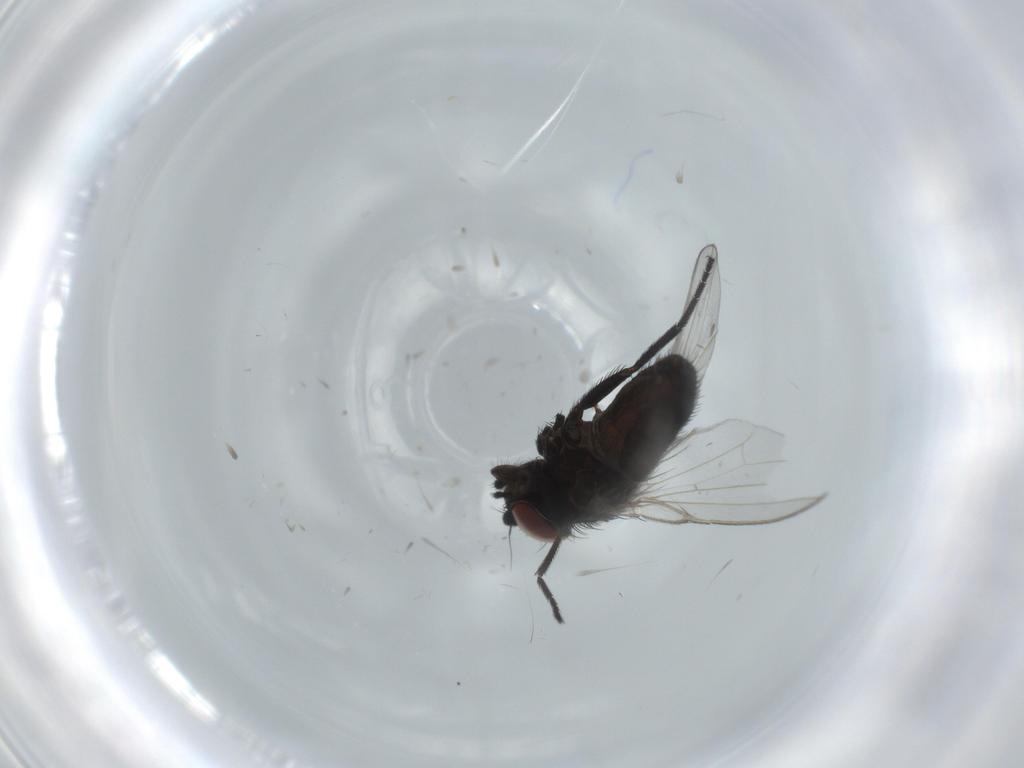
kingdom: Animalia
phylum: Arthropoda
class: Insecta
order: Diptera
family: Milichiidae
